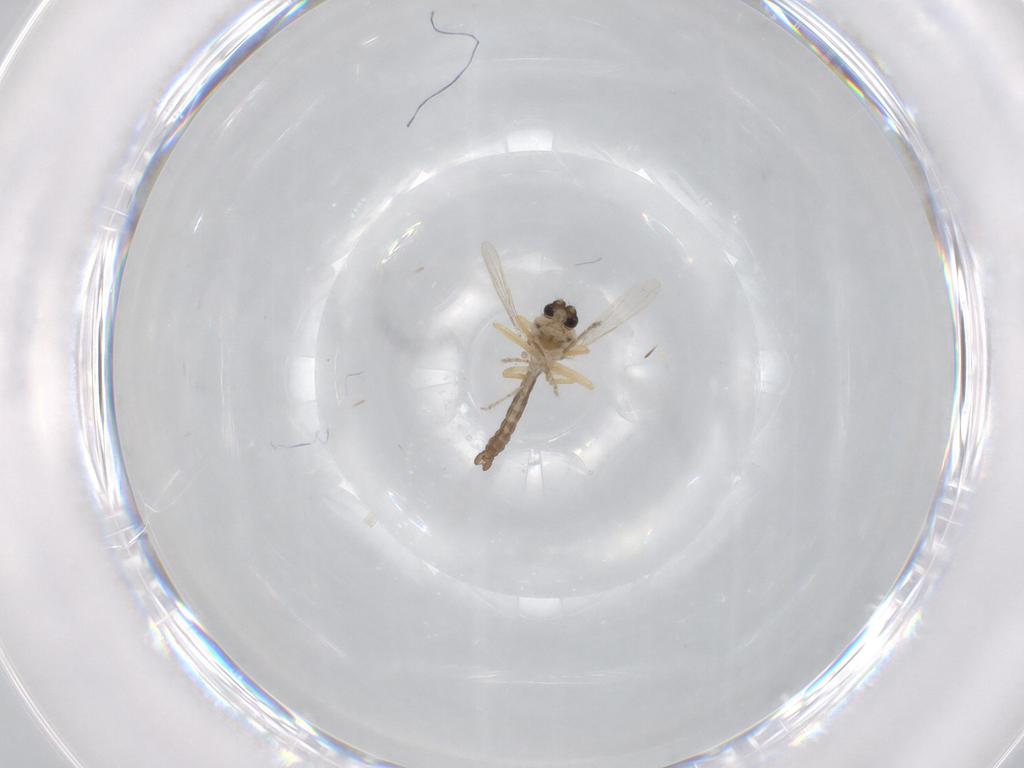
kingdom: Animalia
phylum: Arthropoda
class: Insecta
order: Diptera
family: Ceratopogonidae
